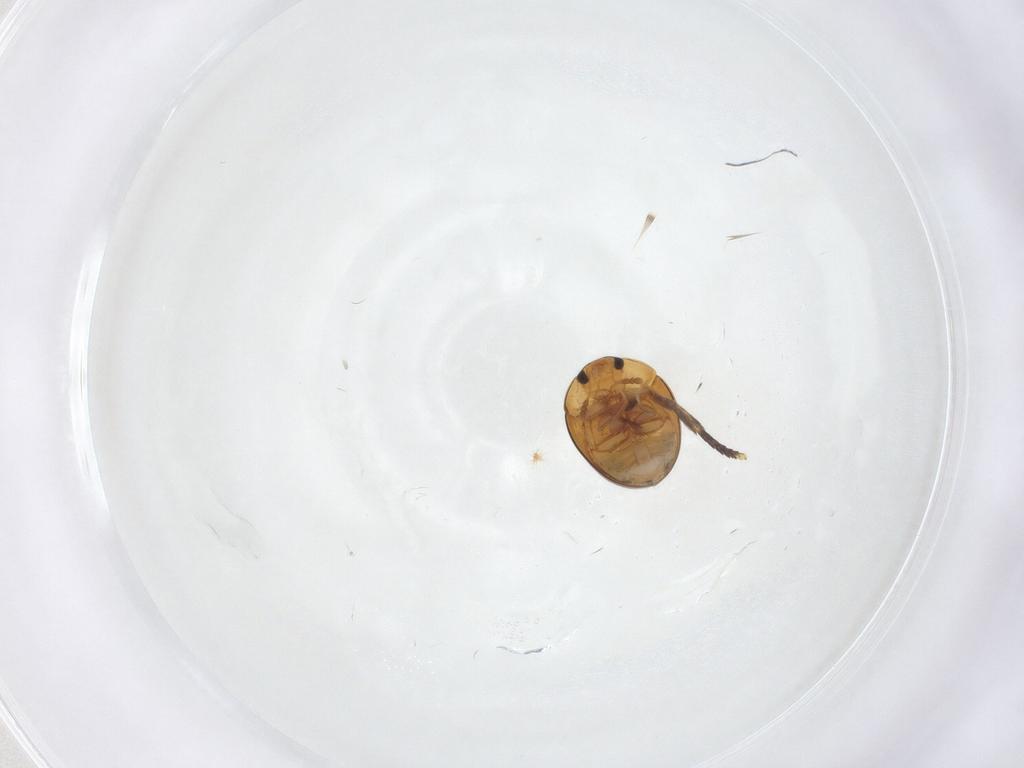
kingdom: Animalia
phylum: Arthropoda
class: Insecta
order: Coleoptera
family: Phalacridae
